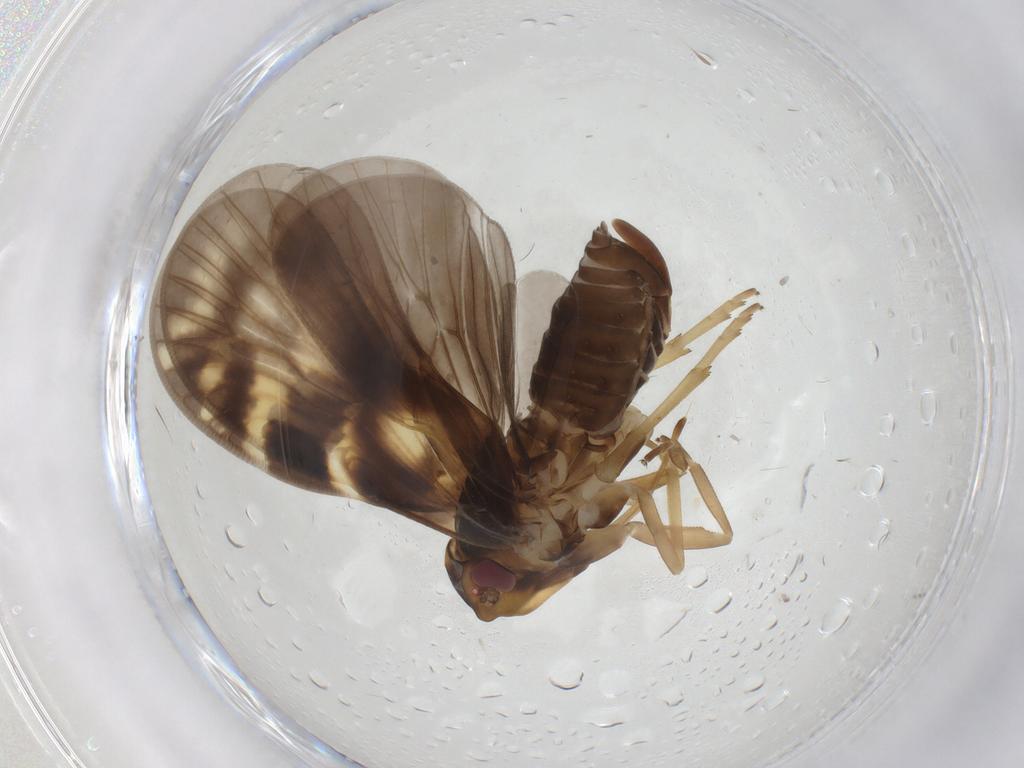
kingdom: Animalia
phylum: Arthropoda
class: Insecta
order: Hemiptera
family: Cixiidae
